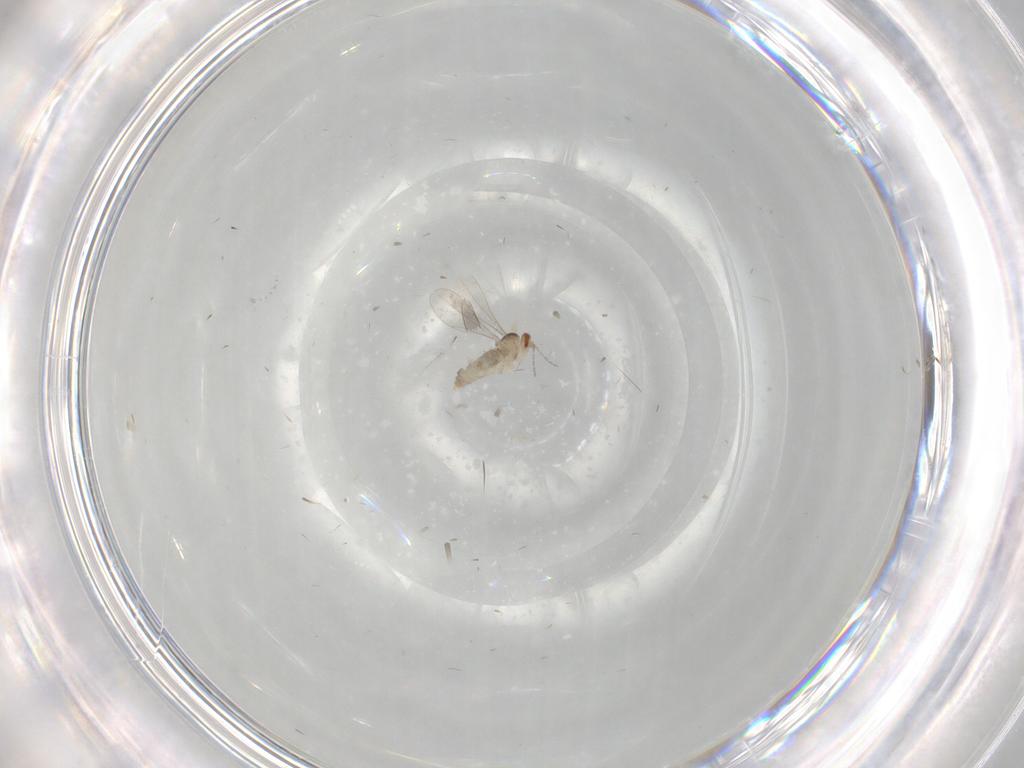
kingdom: Animalia
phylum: Arthropoda
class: Insecta
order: Diptera
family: Cecidomyiidae
